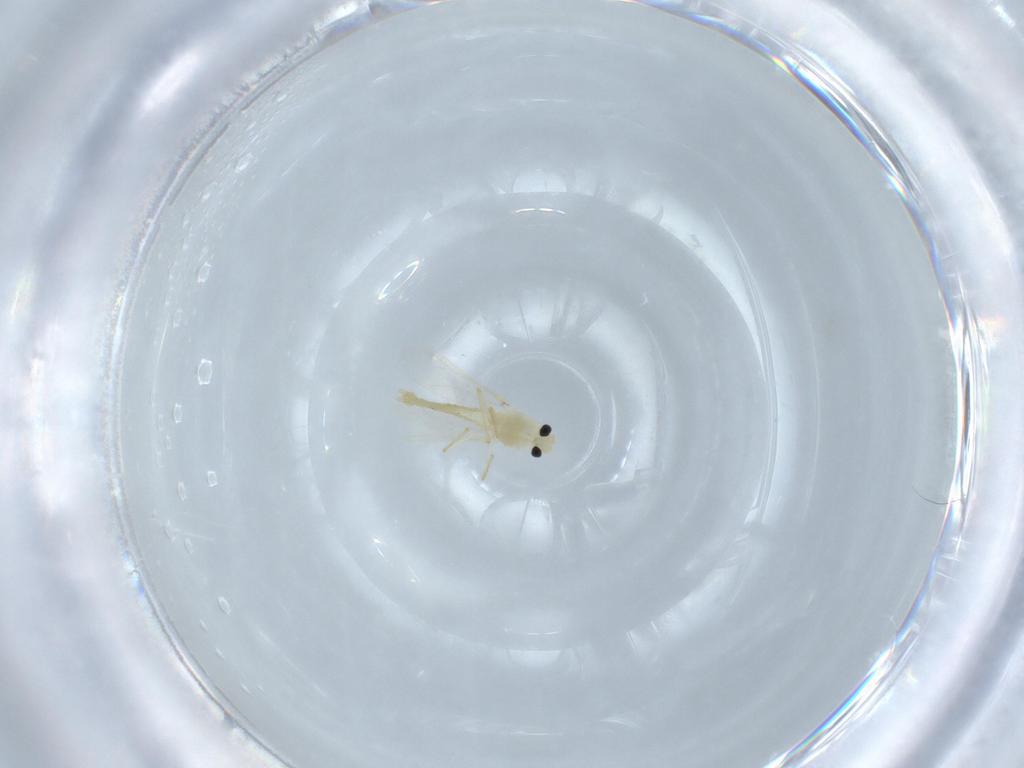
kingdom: Animalia
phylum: Arthropoda
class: Insecta
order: Diptera
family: Chironomidae
